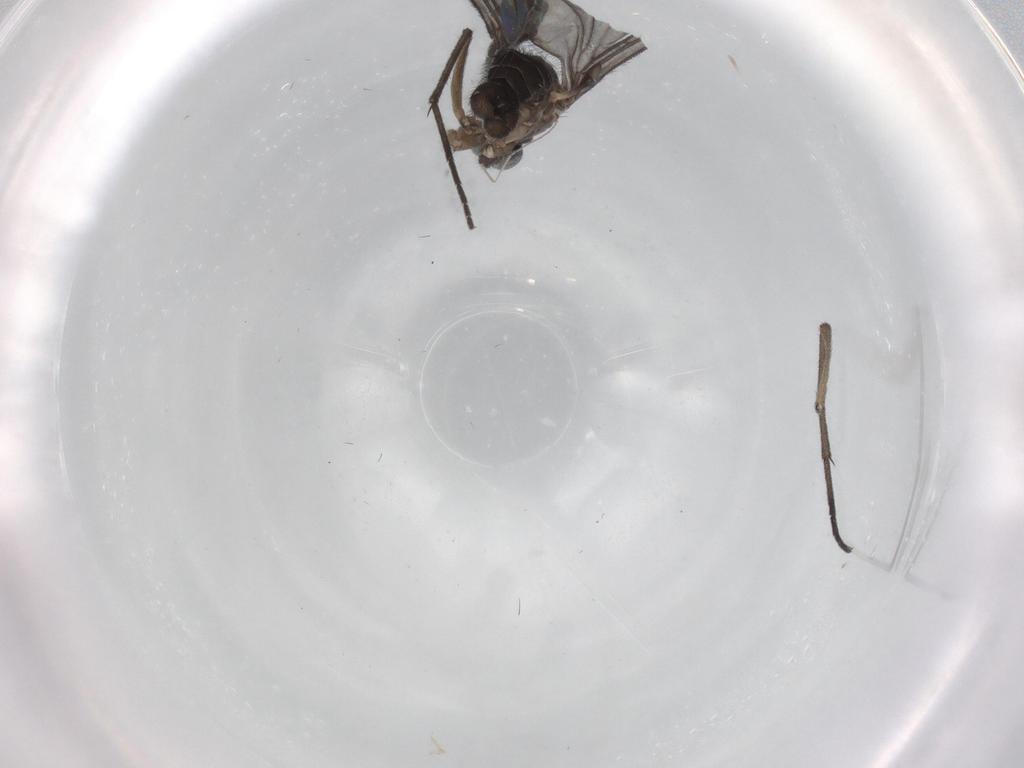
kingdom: Animalia
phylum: Arthropoda
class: Insecta
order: Diptera
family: Sciaridae
